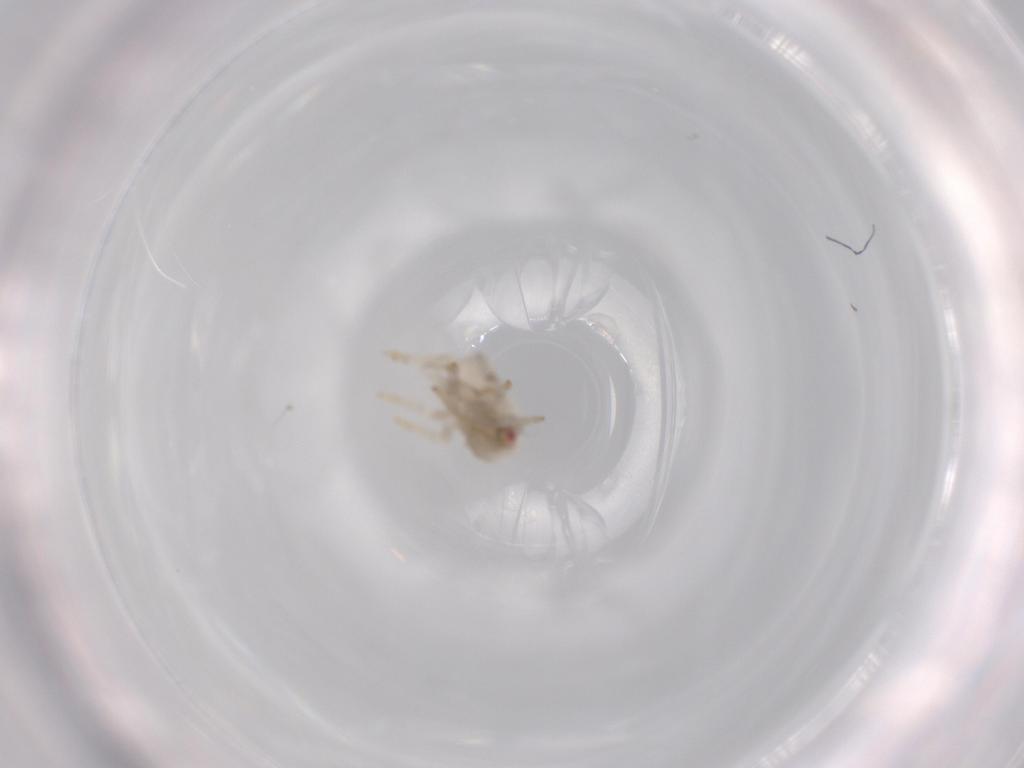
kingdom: Animalia
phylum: Arthropoda
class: Insecta
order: Hemiptera
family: Acanaloniidae
